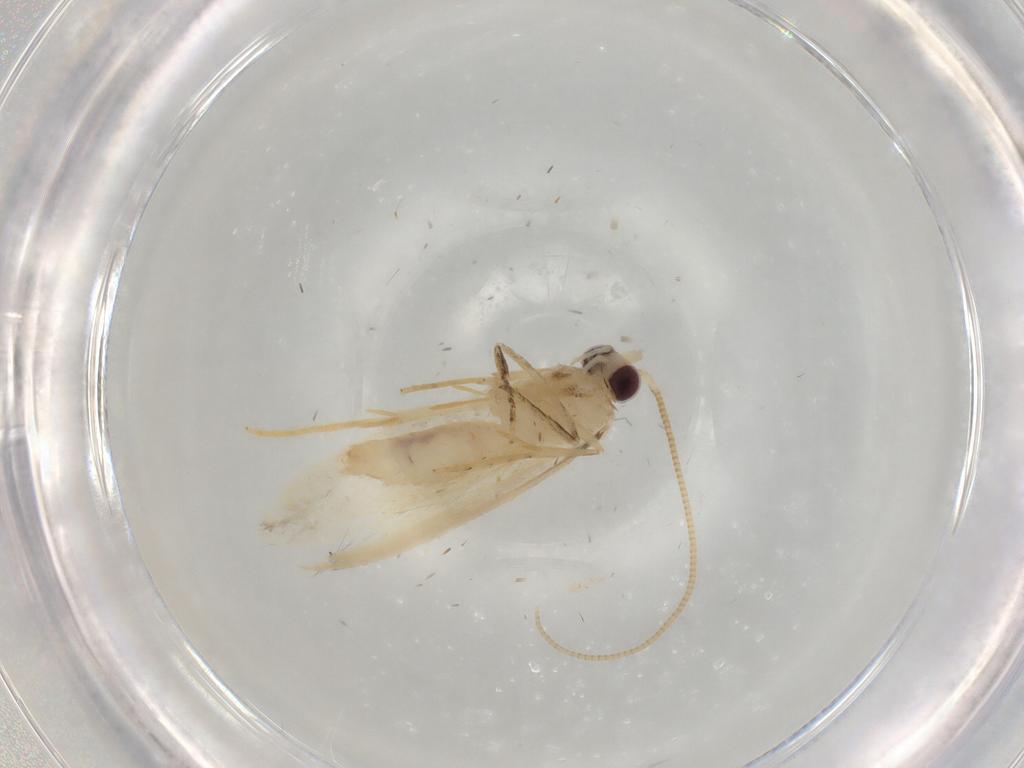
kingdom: Animalia
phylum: Arthropoda
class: Insecta
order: Lepidoptera
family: Nepticulidae
